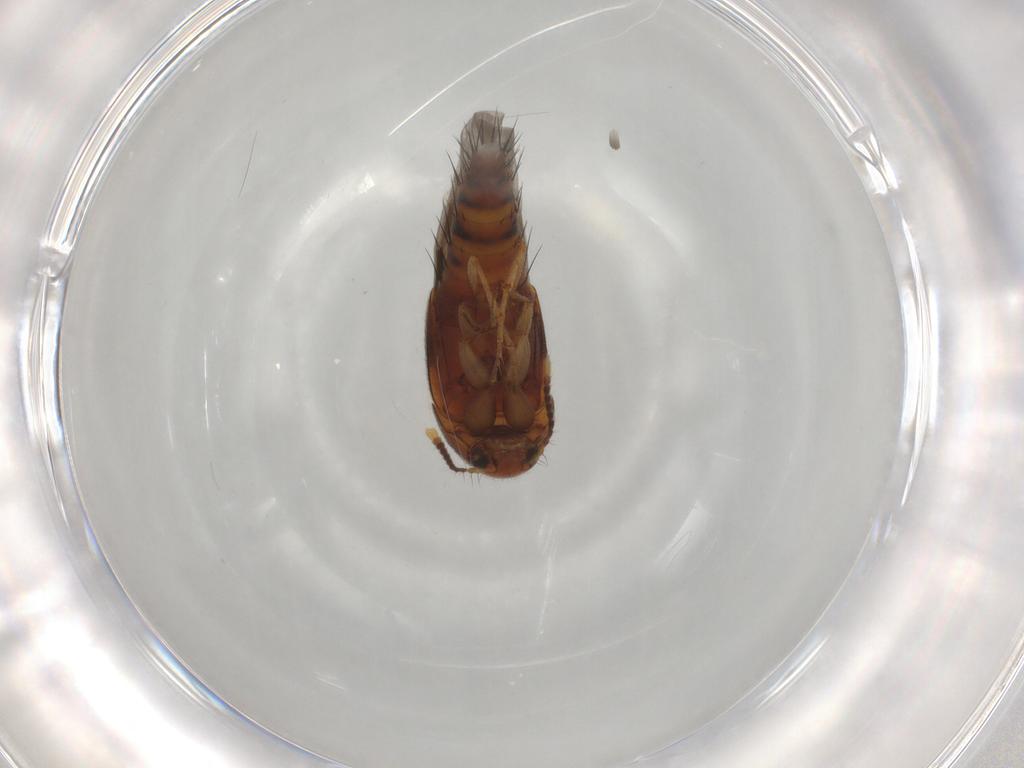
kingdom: Animalia
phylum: Arthropoda
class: Insecta
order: Coleoptera
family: Staphylinidae
